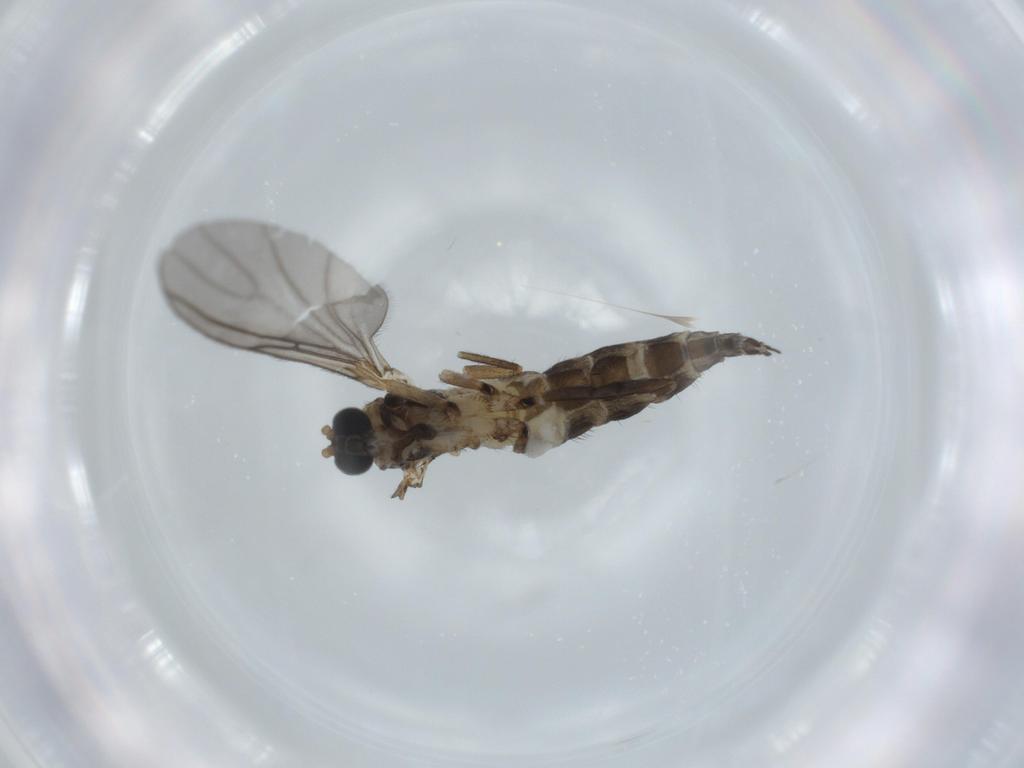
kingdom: Animalia
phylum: Arthropoda
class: Insecta
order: Diptera
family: Sciaridae
